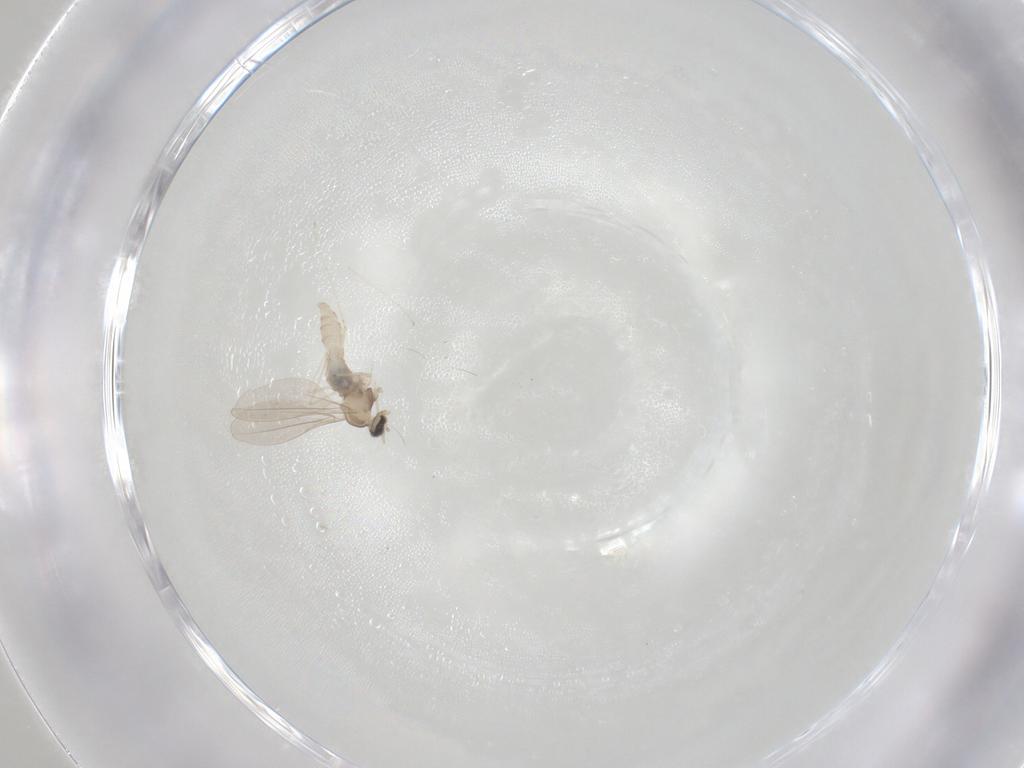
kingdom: Animalia
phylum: Arthropoda
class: Insecta
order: Diptera
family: Tachinidae
